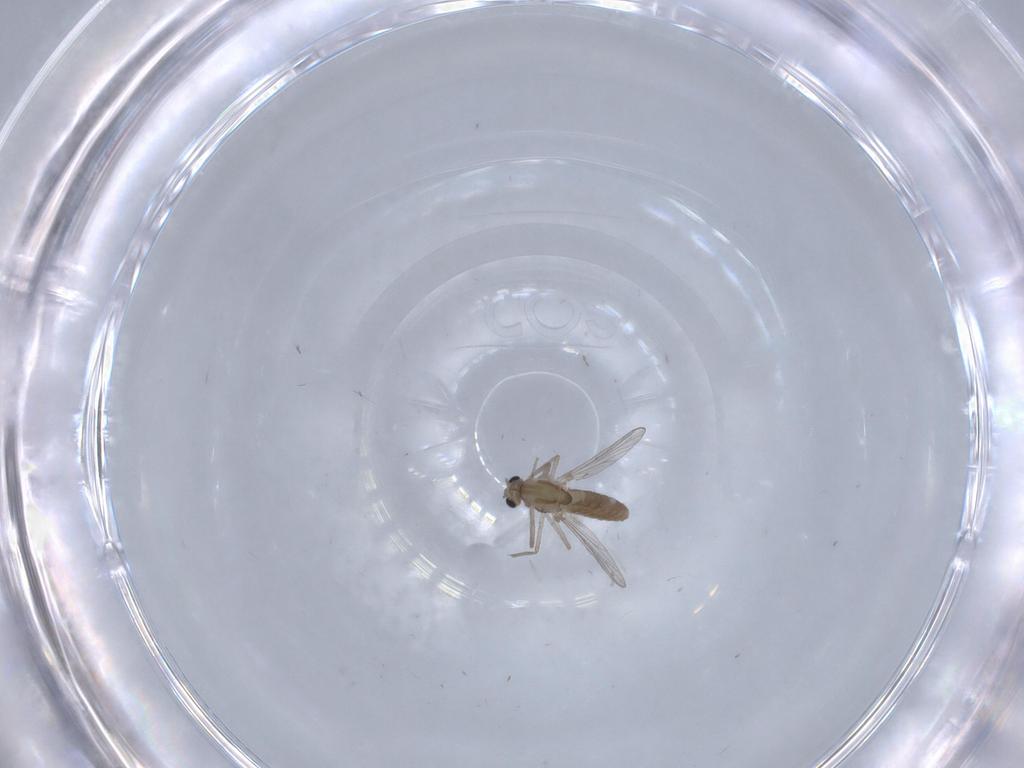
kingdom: Animalia
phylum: Arthropoda
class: Insecta
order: Diptera
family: Chironomidae
